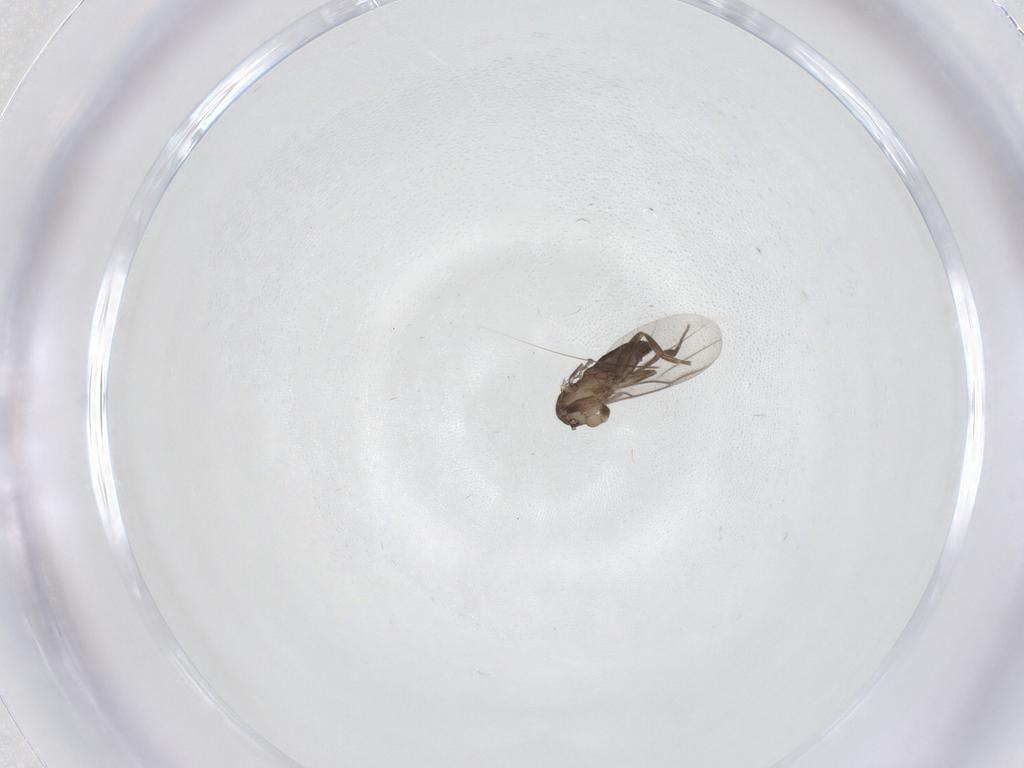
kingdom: Animalia
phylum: Arthropoda
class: Insecta
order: Diptera
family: Phoridae
